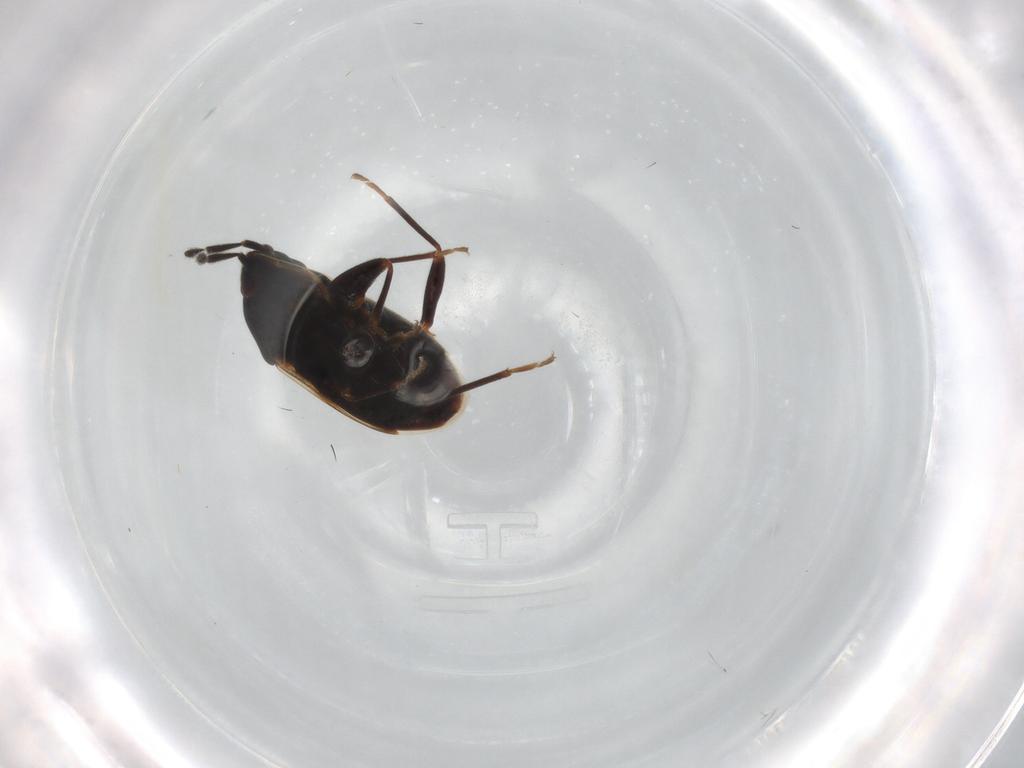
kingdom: Animalia
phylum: Arthropoda
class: Insecta
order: Hemiptera
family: Rhyparochromidae
